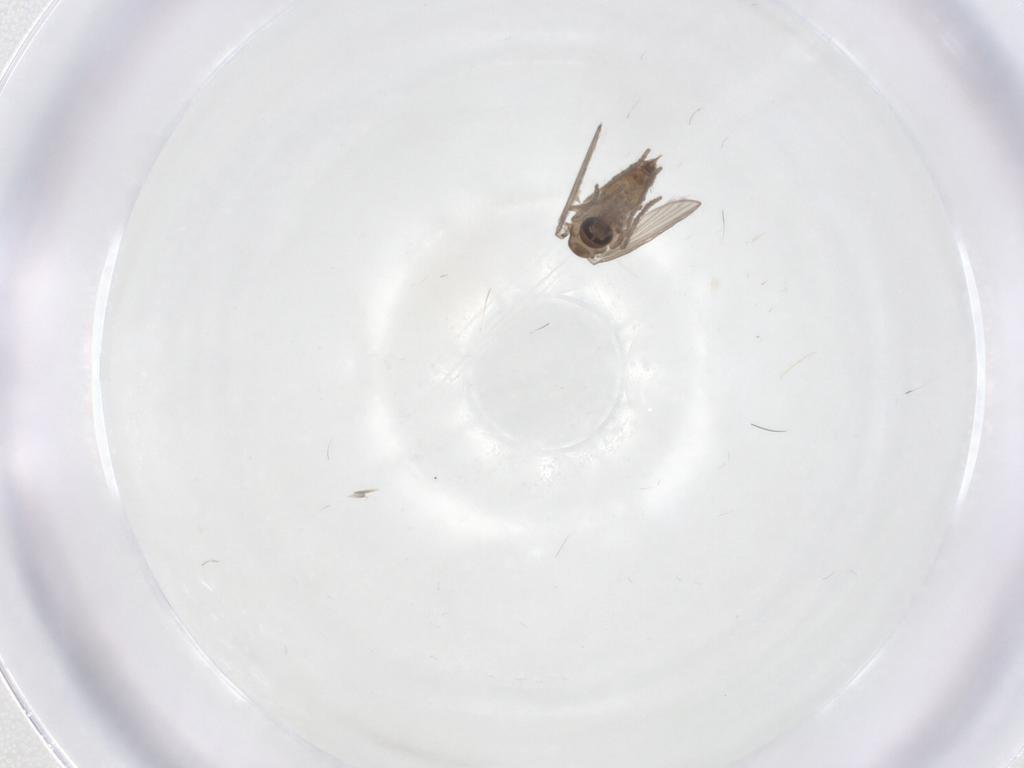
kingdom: Animalia
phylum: Arthropoda
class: Insecta
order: Diptera
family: Psychodidae
